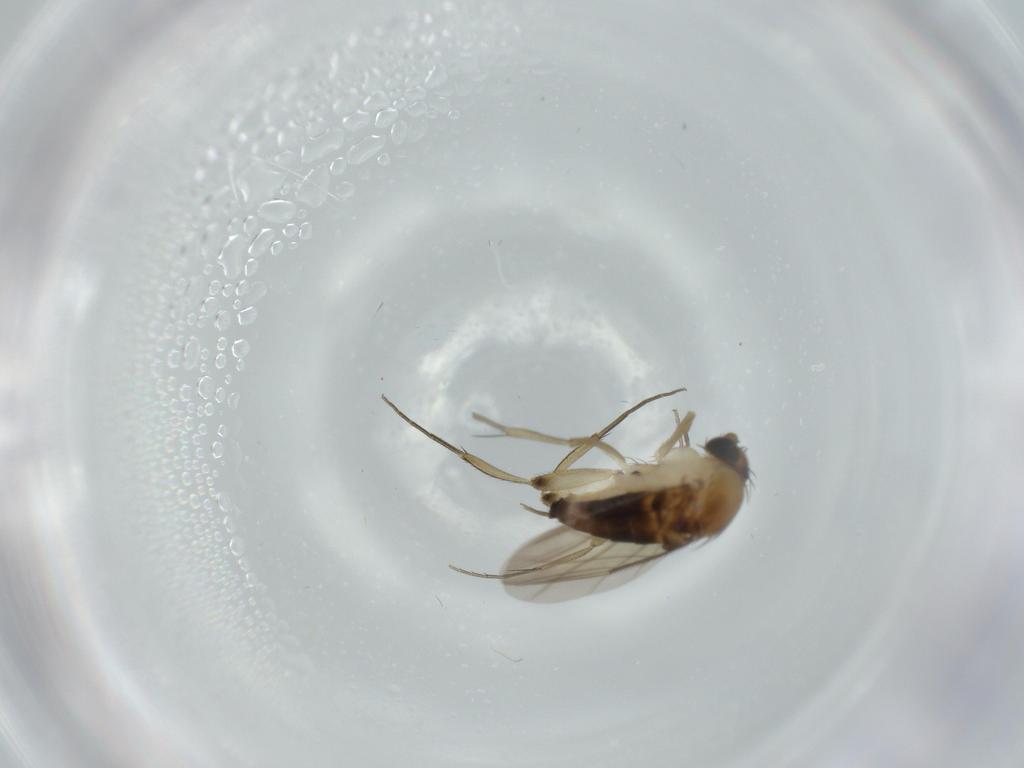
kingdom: Animalia
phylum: Arthropoda
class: Insecta
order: Diptera
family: Phoridae
